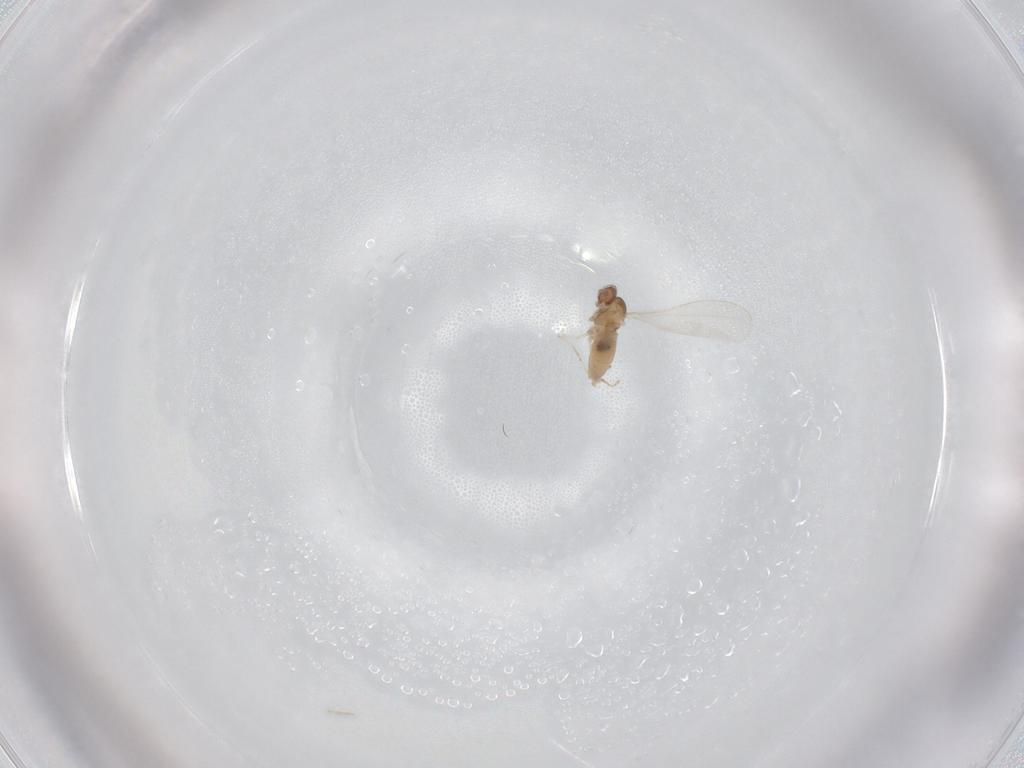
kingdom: Animalia
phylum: Arthropoda
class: Insecta
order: Diptera
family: Cecidomyiidae
